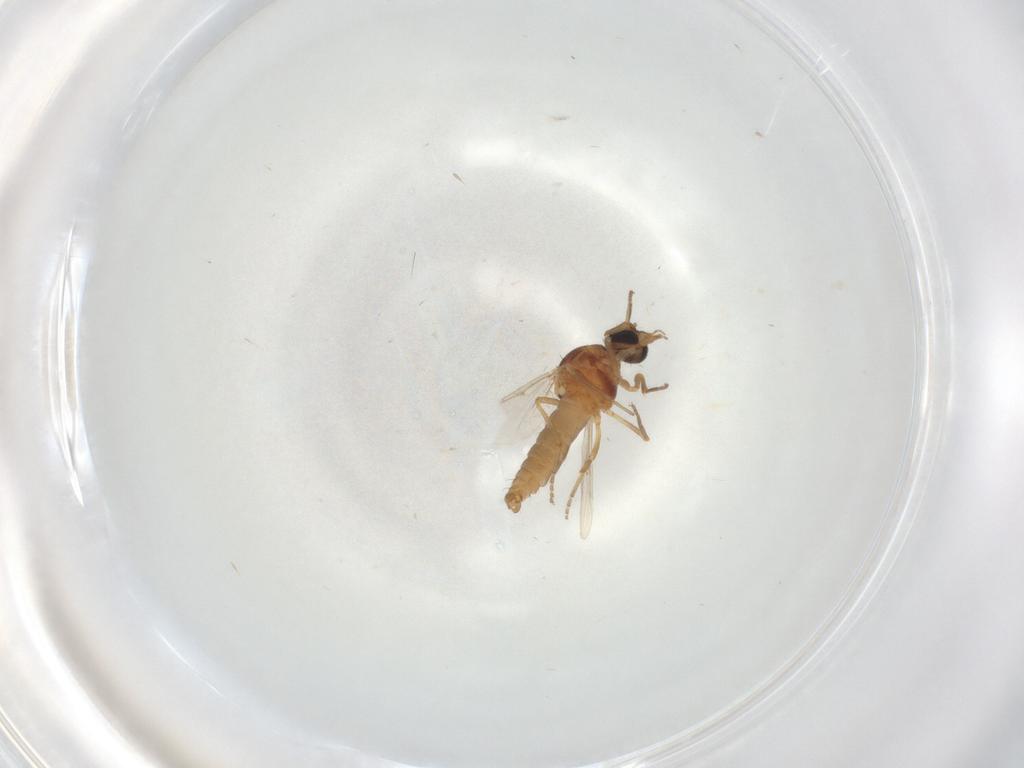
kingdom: Animalia
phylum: Arthropoda
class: Insecta
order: Diptera
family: Psychodidae
